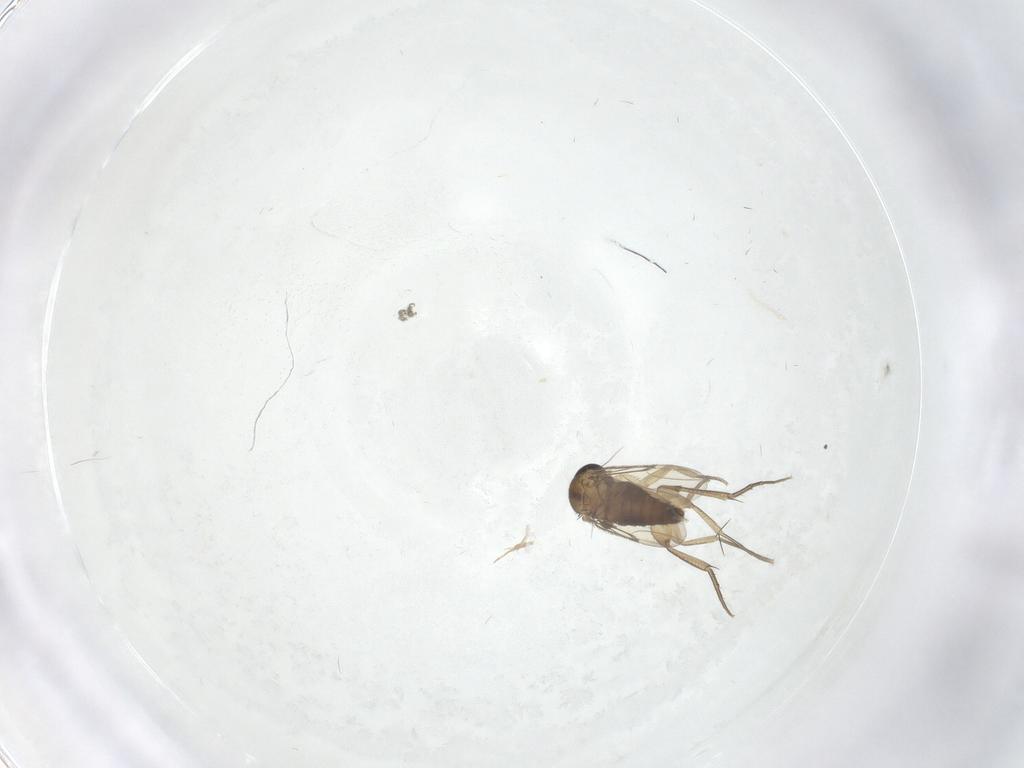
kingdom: Animalia
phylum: Arthropoda
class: Insecta
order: Diptera
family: Phoridae
